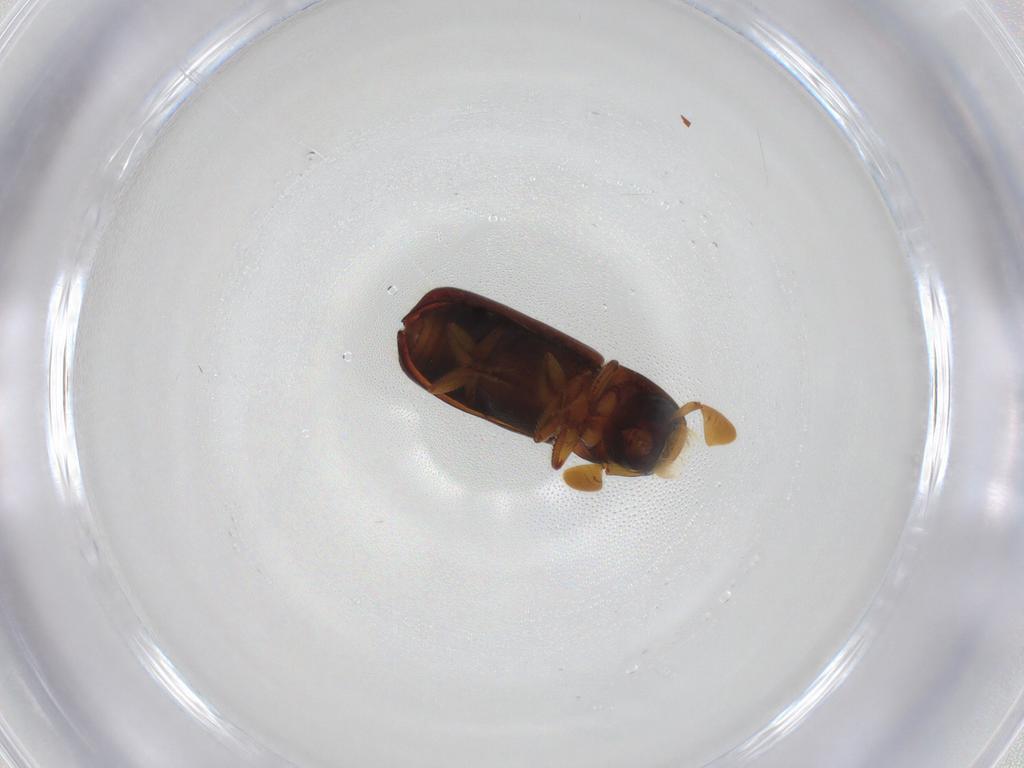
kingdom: Animalia
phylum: Arthropoda
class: Insecta
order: Coleoptera
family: Curculionidae
